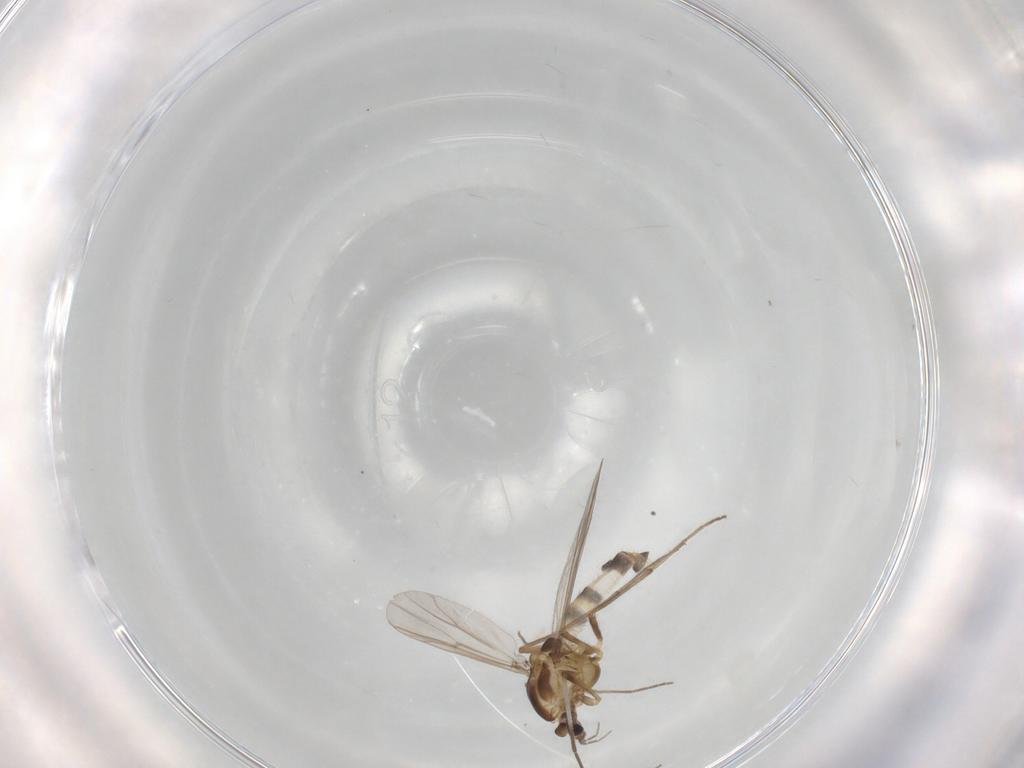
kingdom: Animalia
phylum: Arthropoda
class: Insecta
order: Diptera
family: Chironomidae
